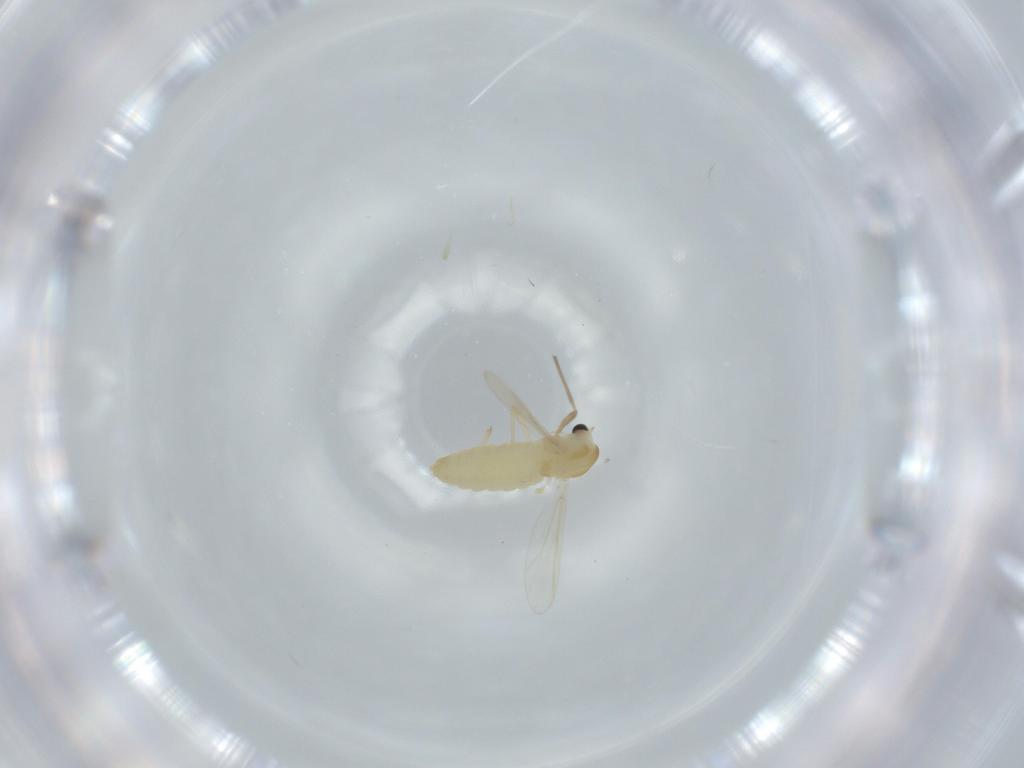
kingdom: Animalia
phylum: Arthropoda
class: Insecta
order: Diptera
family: Chironomidae
